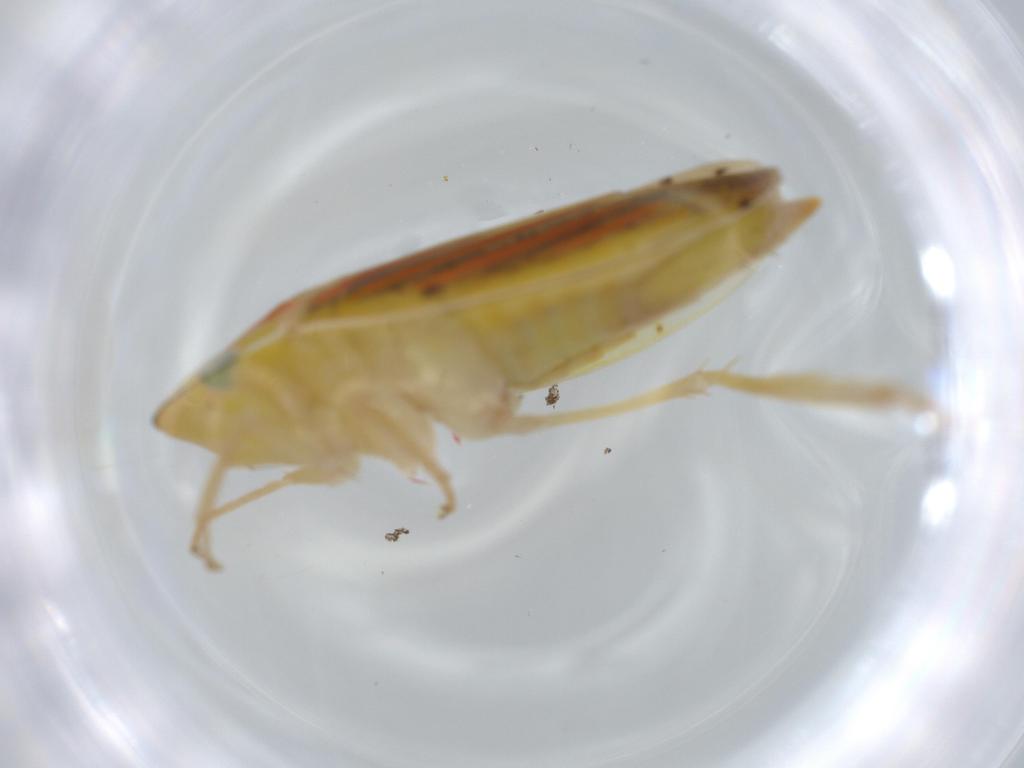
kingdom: Animalia
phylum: Arthropoda
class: Insecta
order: Hemiptera
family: Cicadellidae
